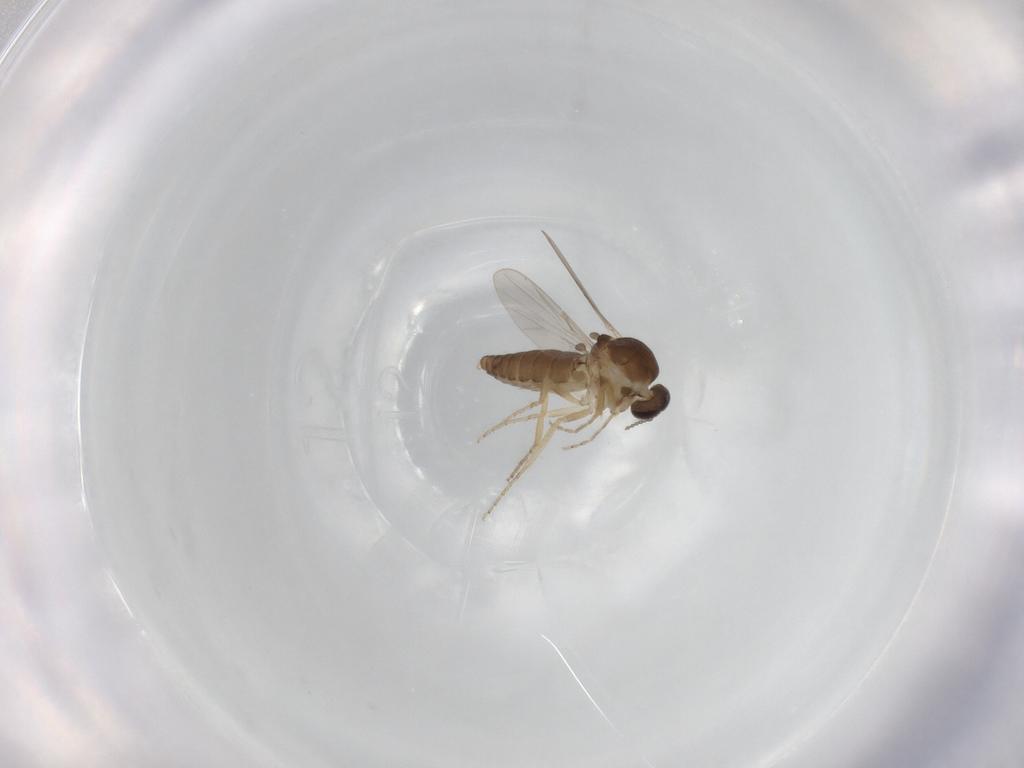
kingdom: Animalia
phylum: Arthropoda
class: Insecta
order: Diptera
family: Ceratopogonidae
